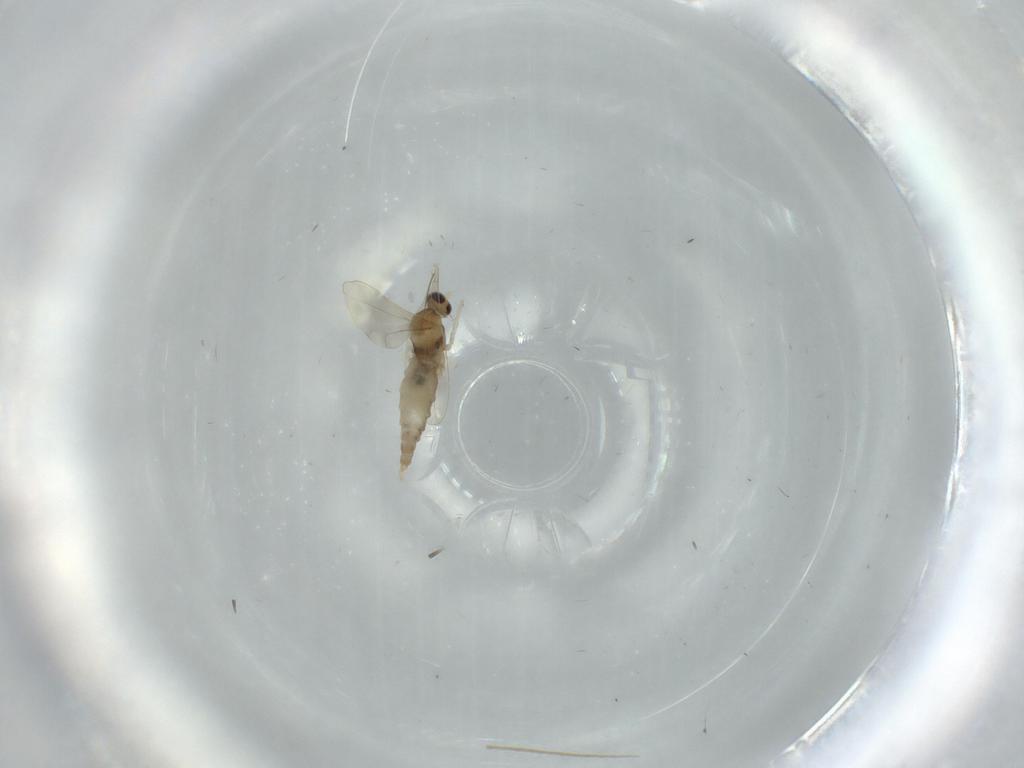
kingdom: Animalia
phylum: Arthropoda
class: Insecta
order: Diptera
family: Cecidomyiidae
